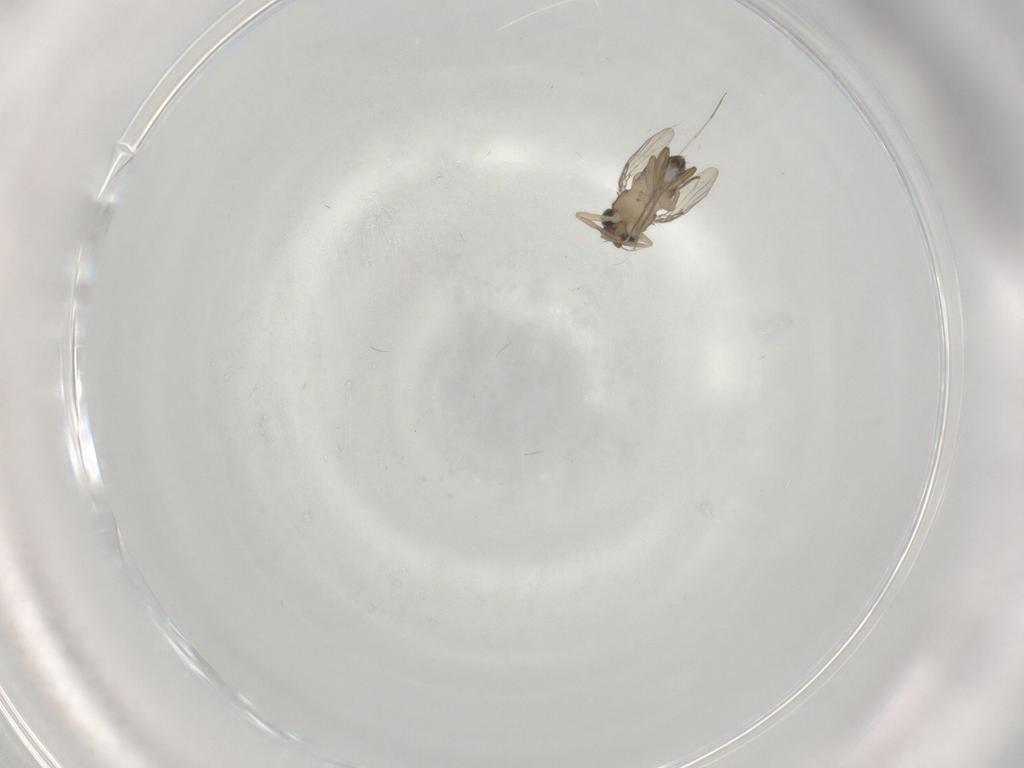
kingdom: Animalia
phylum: Arthropoda
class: Insecta
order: Diptera
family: Phoridae
